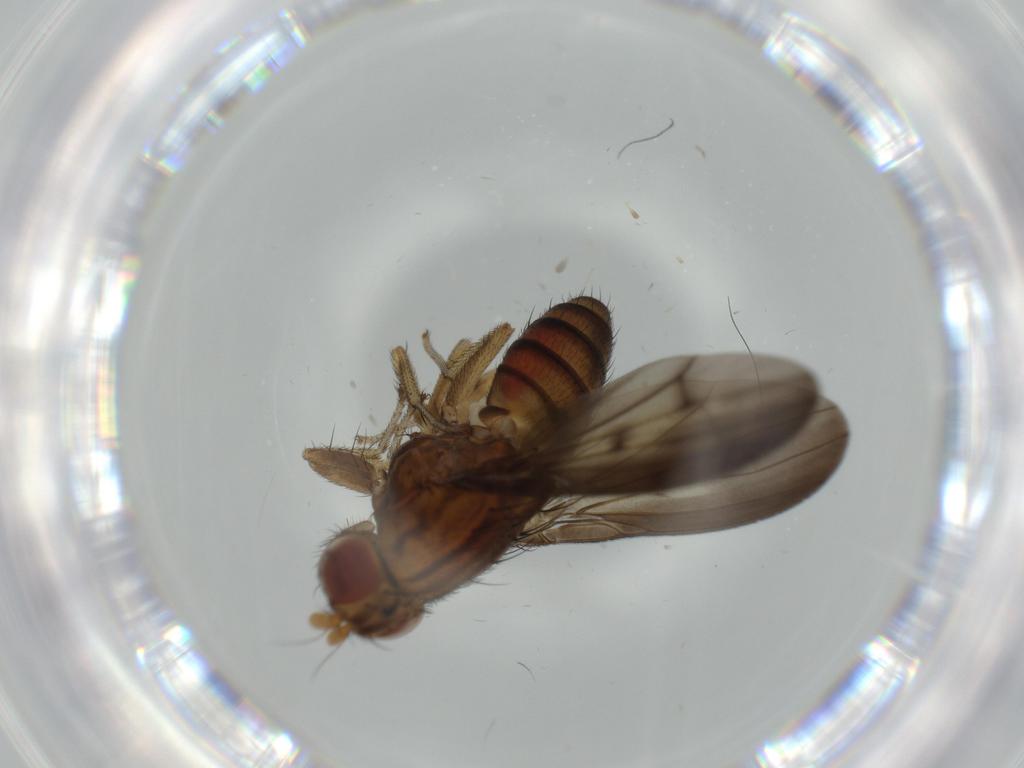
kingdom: Animalia
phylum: Arthropoda
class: Insecta
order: Diptera
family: Lauxaniidae
